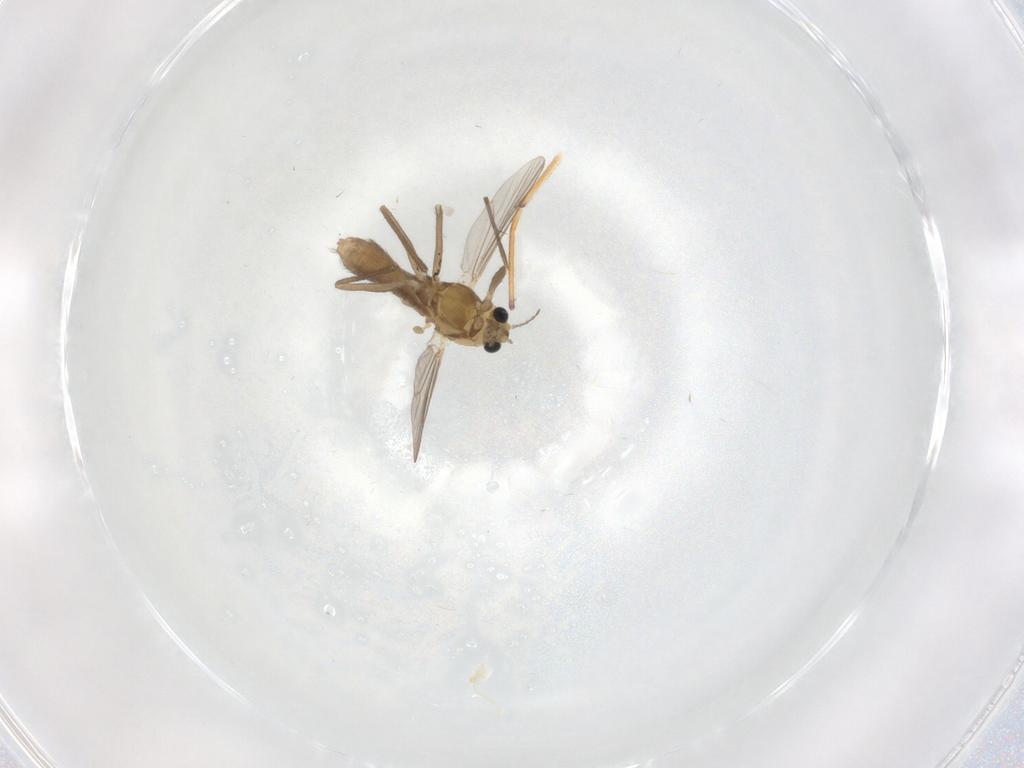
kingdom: Animalia
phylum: Arthropoda
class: Insecta
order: Diptera
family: Chironomidae
